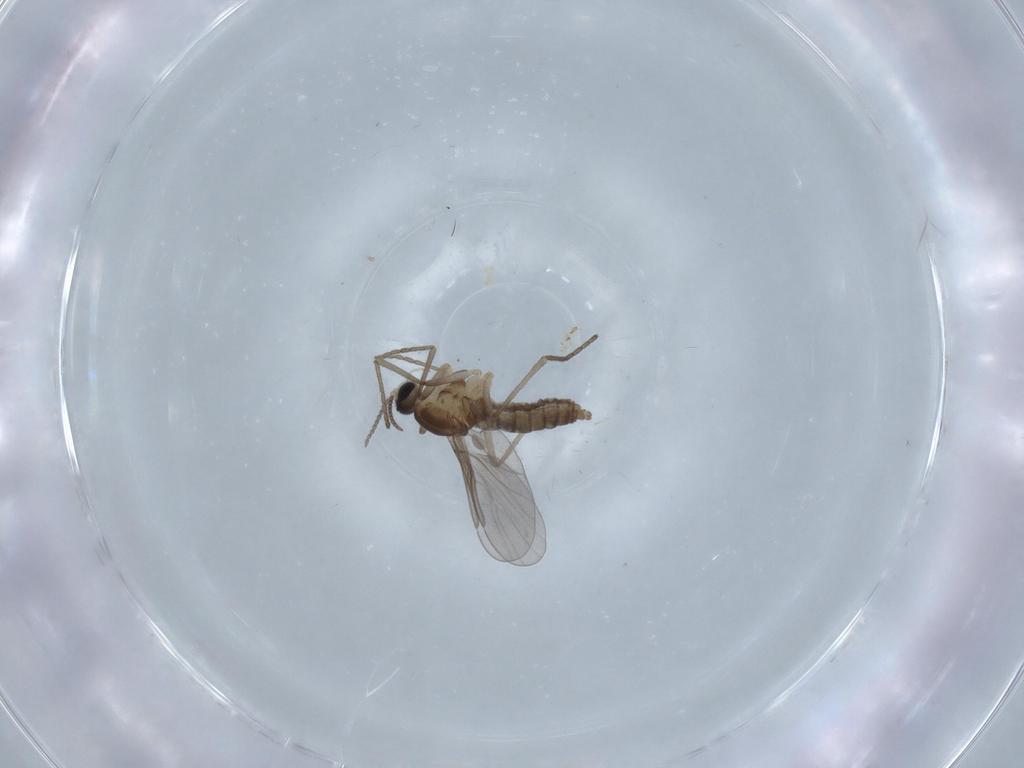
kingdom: Animalia
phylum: Arthropoda
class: Insecta
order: Diptera
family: Cecidomyiidae
